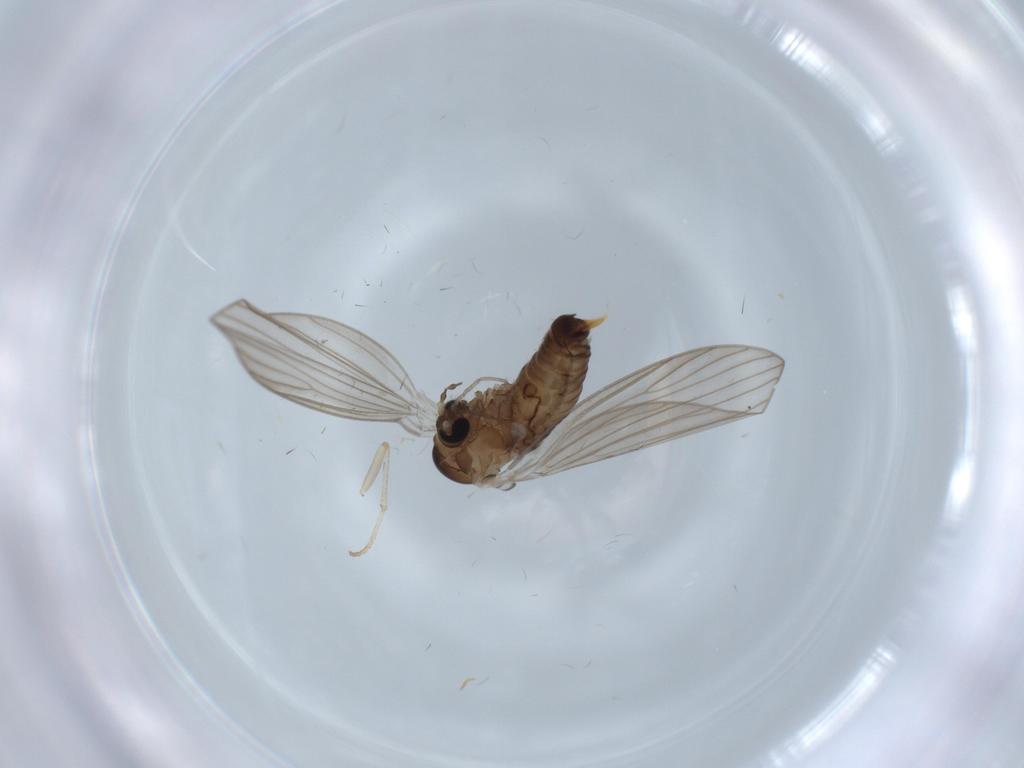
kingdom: Animalia
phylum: Arthropoda
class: Insecta
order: Diptera
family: Psychodidae
